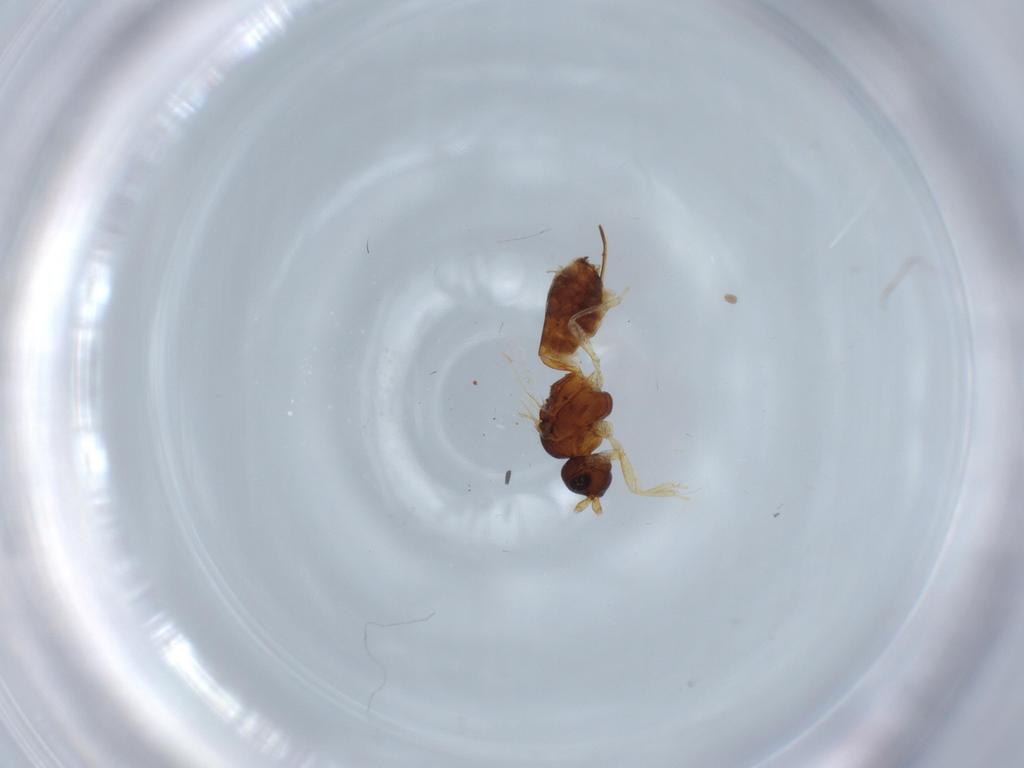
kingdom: Animalia
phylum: Arthropoda
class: Insecta
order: Hymenoptera
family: Braconidae
